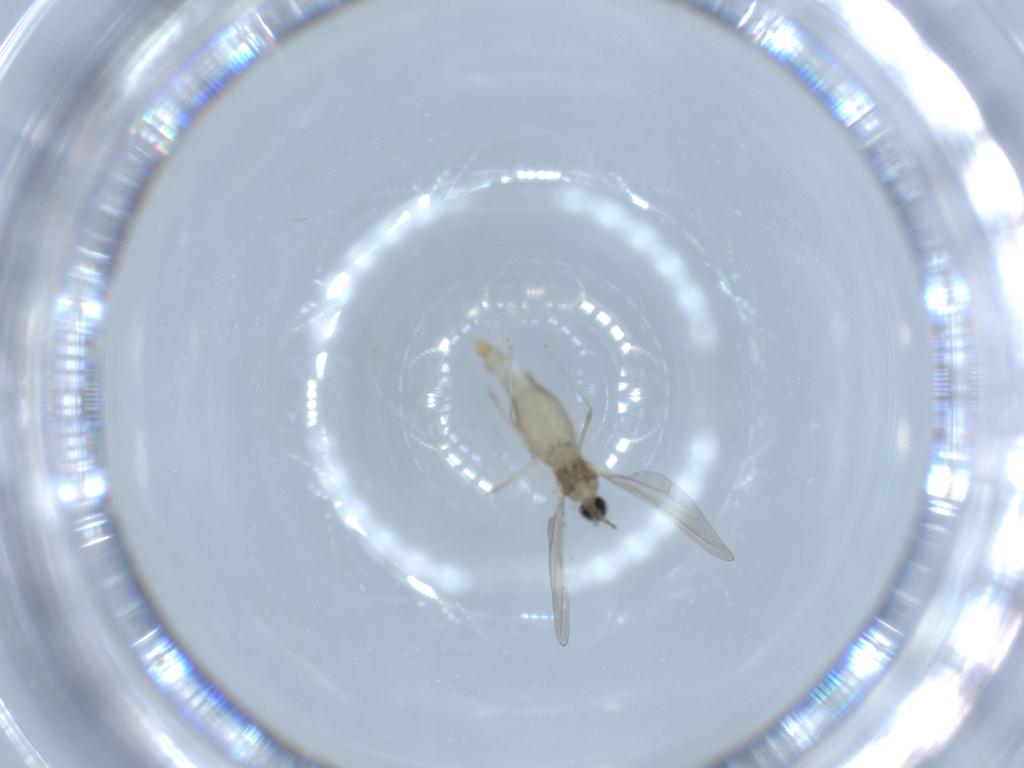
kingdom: Animalia
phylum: Arthropoda
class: Insecta
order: Diptera
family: Cecidomyiidae
